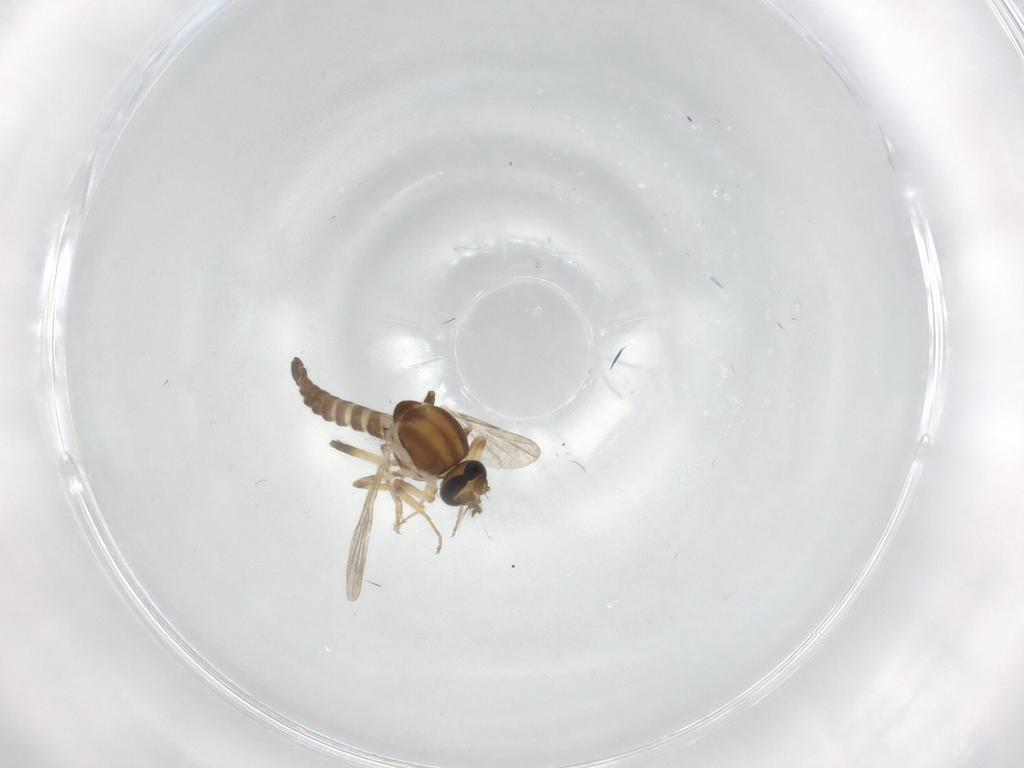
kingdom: Animalia
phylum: Arthropoda
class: Insecta
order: Diptera
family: Ceratopogonidae
